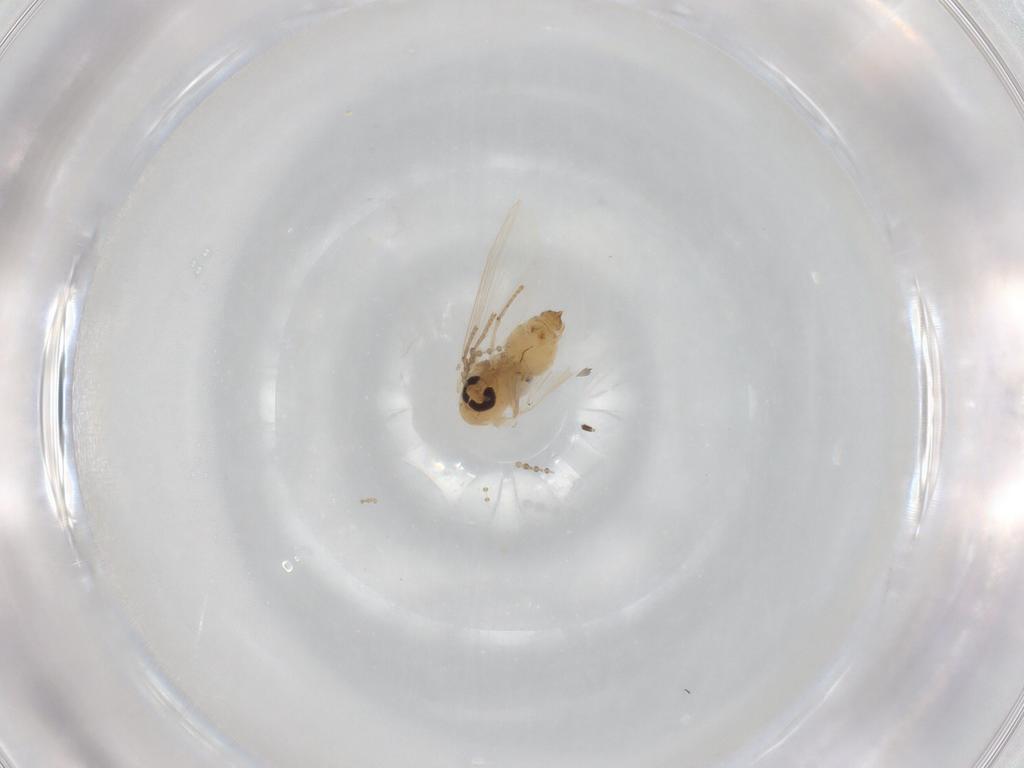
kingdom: Animalia
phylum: Arthropoda
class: Insecta
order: Diptera
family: Psychodidae
